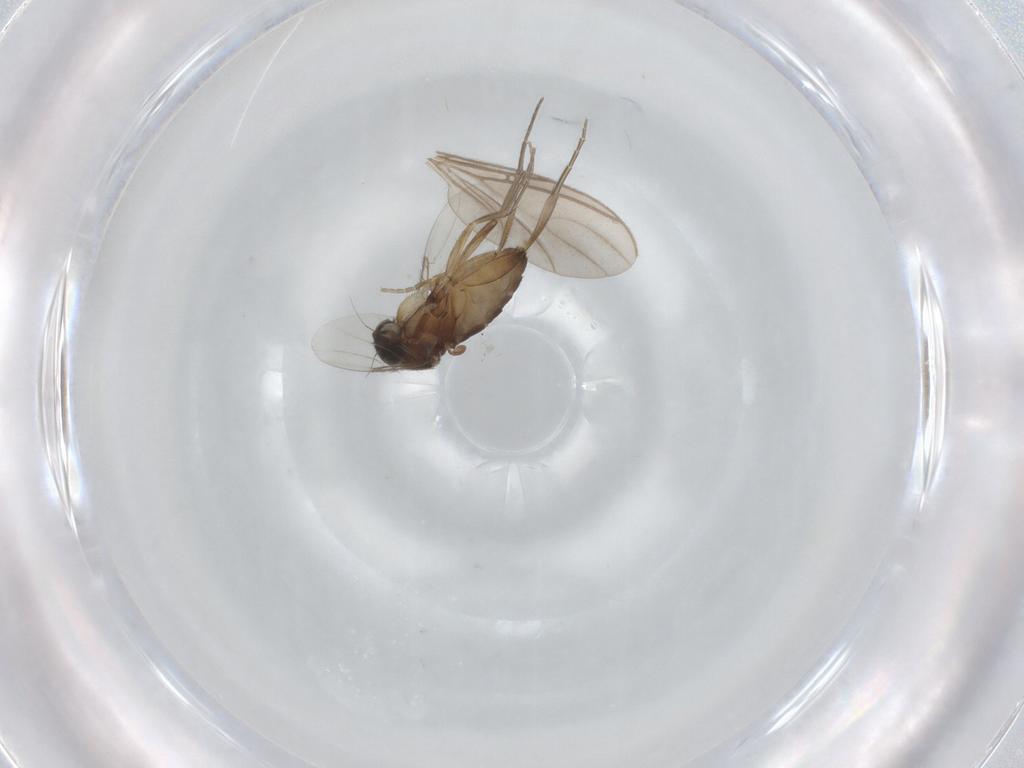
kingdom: Animalia
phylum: Arthropoda
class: Insecta
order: Diptera
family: Phoridae
